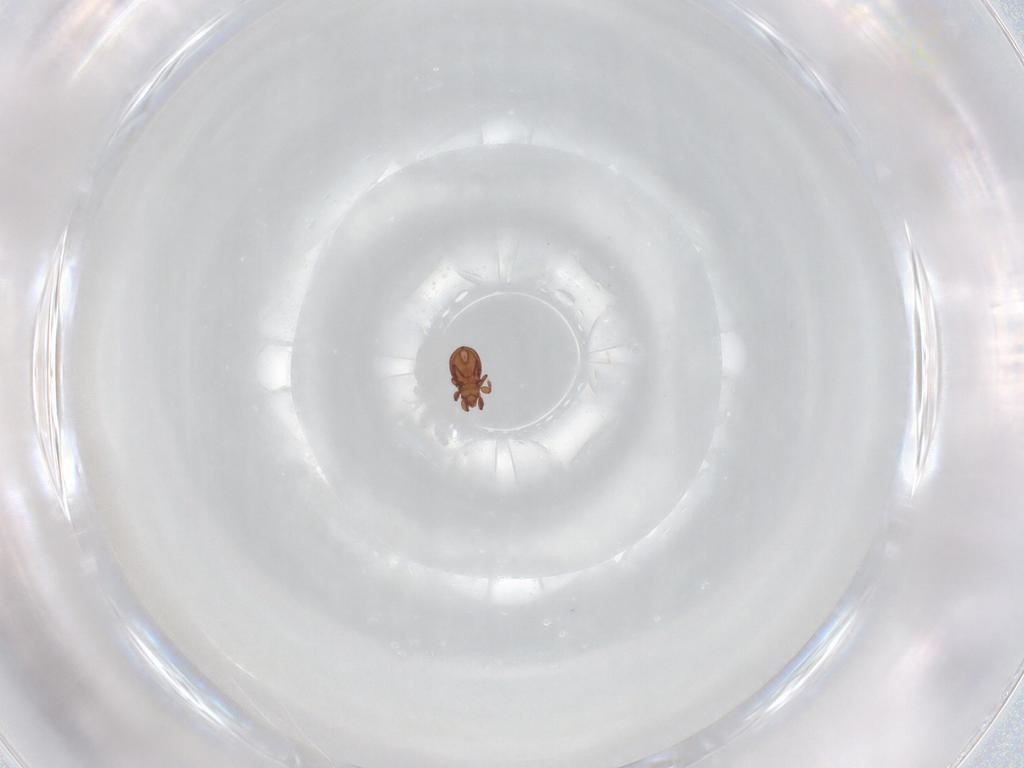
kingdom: Animalia
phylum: Arthropoda
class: Arachnida
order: Sarcoptiformes
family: Eremaeidae
